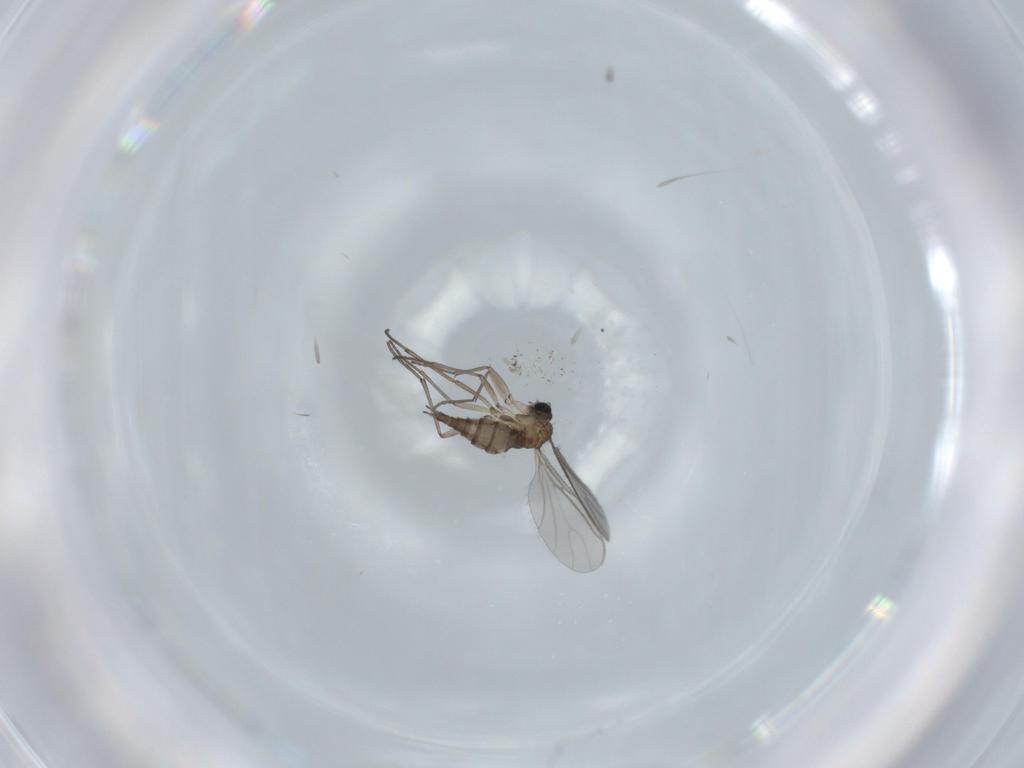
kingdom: Animalia
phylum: Arthropoda
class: Insecta
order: Diptera
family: Sciaridae
